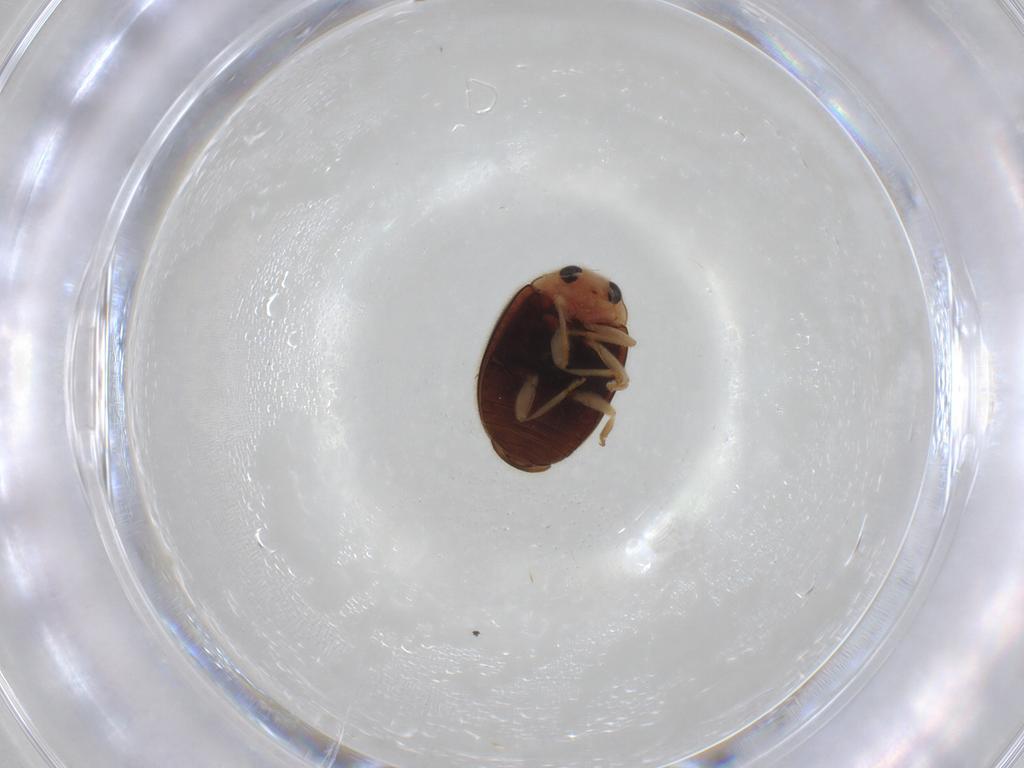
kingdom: Animalia
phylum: Arthropoda
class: Insecta
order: Coleoptera
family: Coccinellidae
